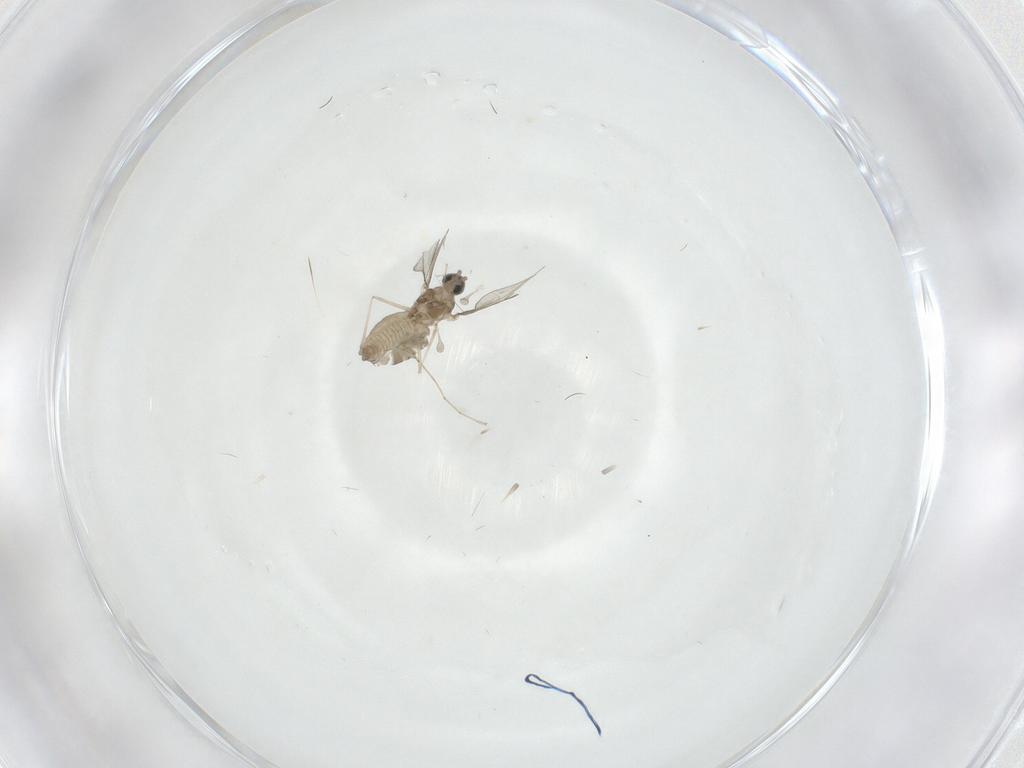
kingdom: Animalia
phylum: Arthropoda
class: Insecta
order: Diptera
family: Cecidomyiidae
